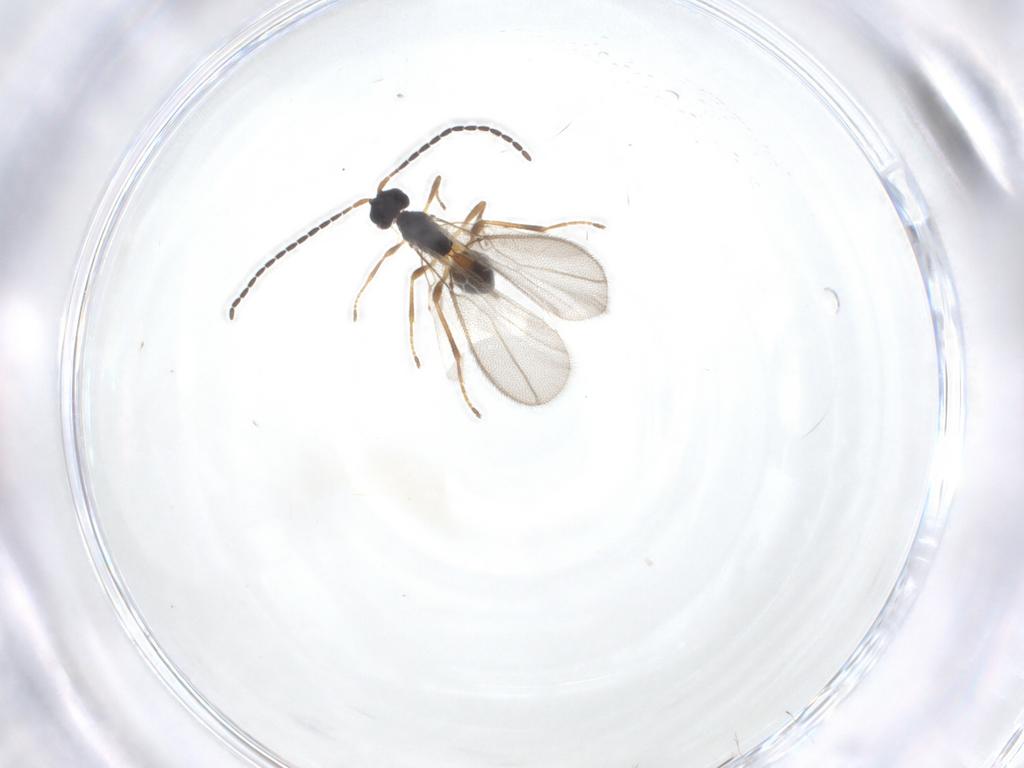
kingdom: Animalia
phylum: Arthropoda
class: Insecta
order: Hymenoptera
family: Braconidae
